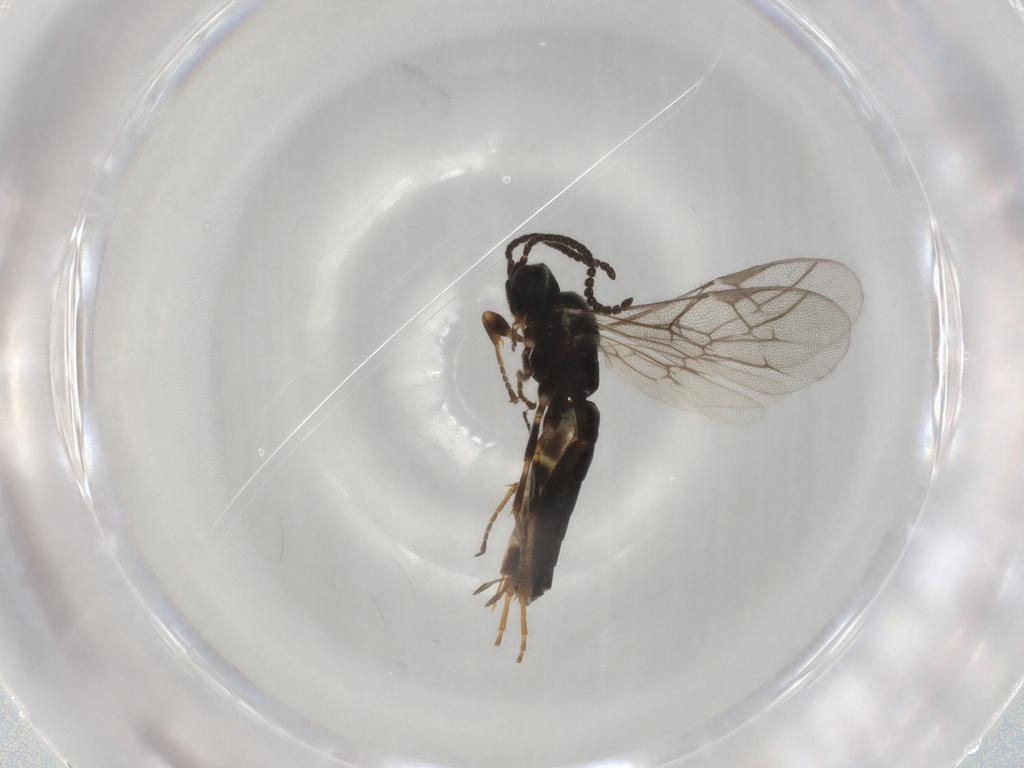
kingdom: Animalia
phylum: Arthropoda
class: Insecta
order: Hymenoptera
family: Ichneumonidae
